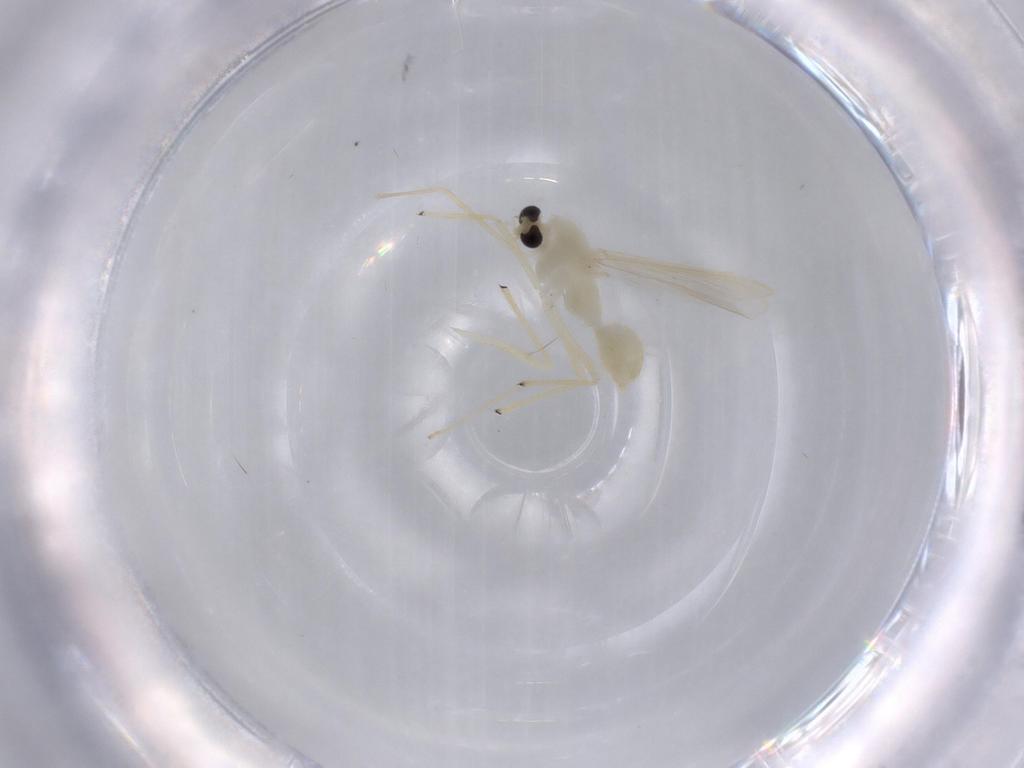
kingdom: Animalia
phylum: Arthropoda
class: Insecta
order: Diptera
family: Chironomidae
